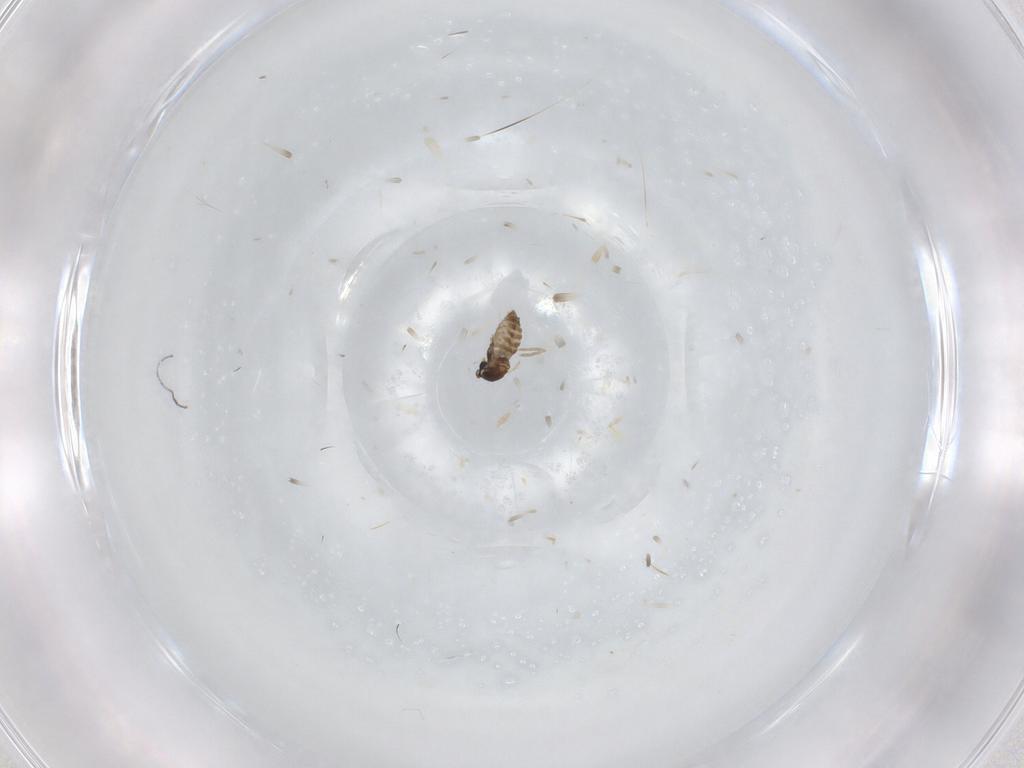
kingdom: Animalia
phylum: Arthropoda
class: Insecta
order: Diptera
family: Cecidomyiidae
